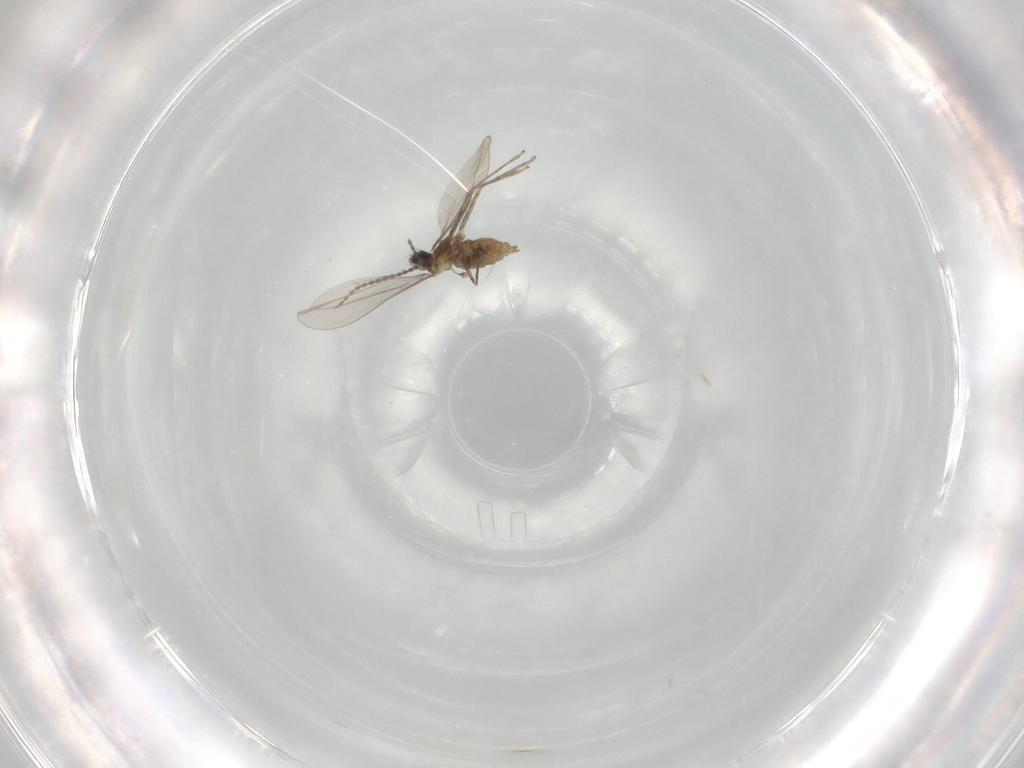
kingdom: Animalia
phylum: Arthropoda
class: Insecta
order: Diptera
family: Cecidomyiidae
